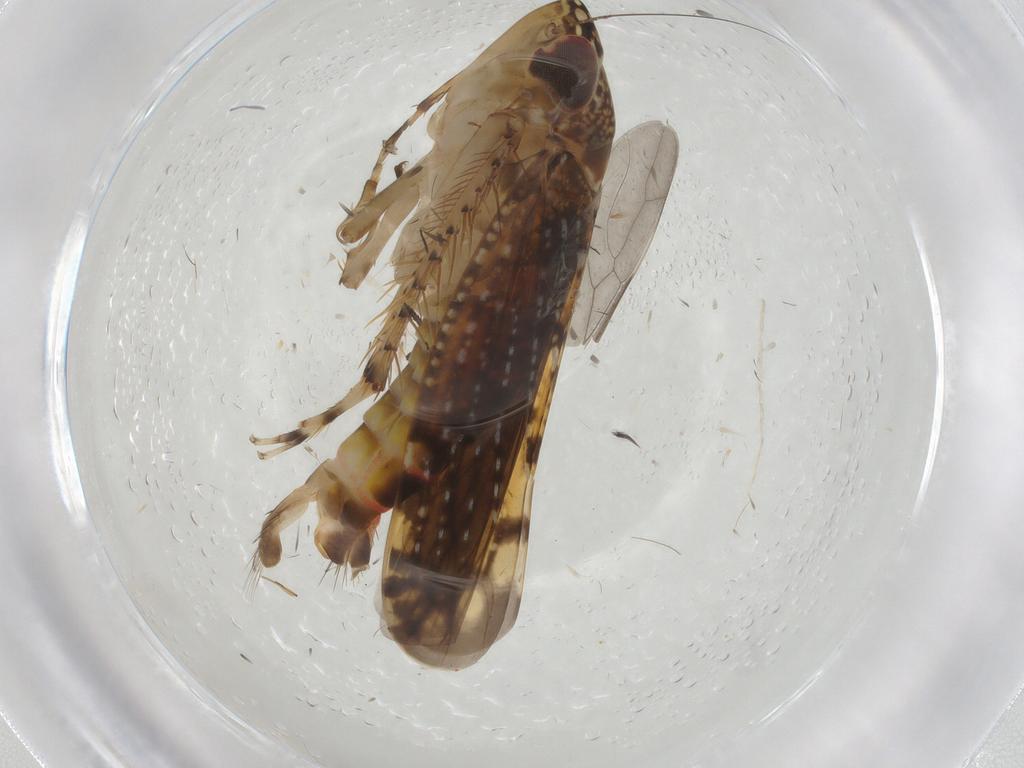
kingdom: Animalia
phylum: Arthropoda
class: Insecta
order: Hemiptera
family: Cicadellidae
